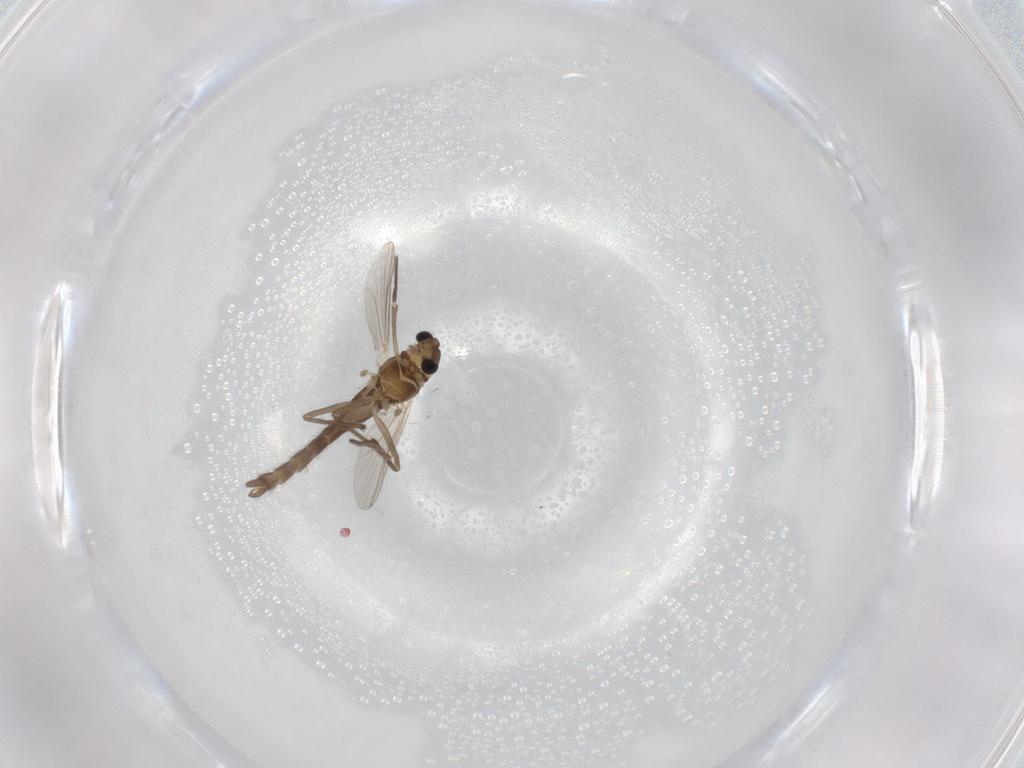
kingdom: Animalia
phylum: Arthropoda
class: Insecta
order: Diptera
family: Chironomidae
